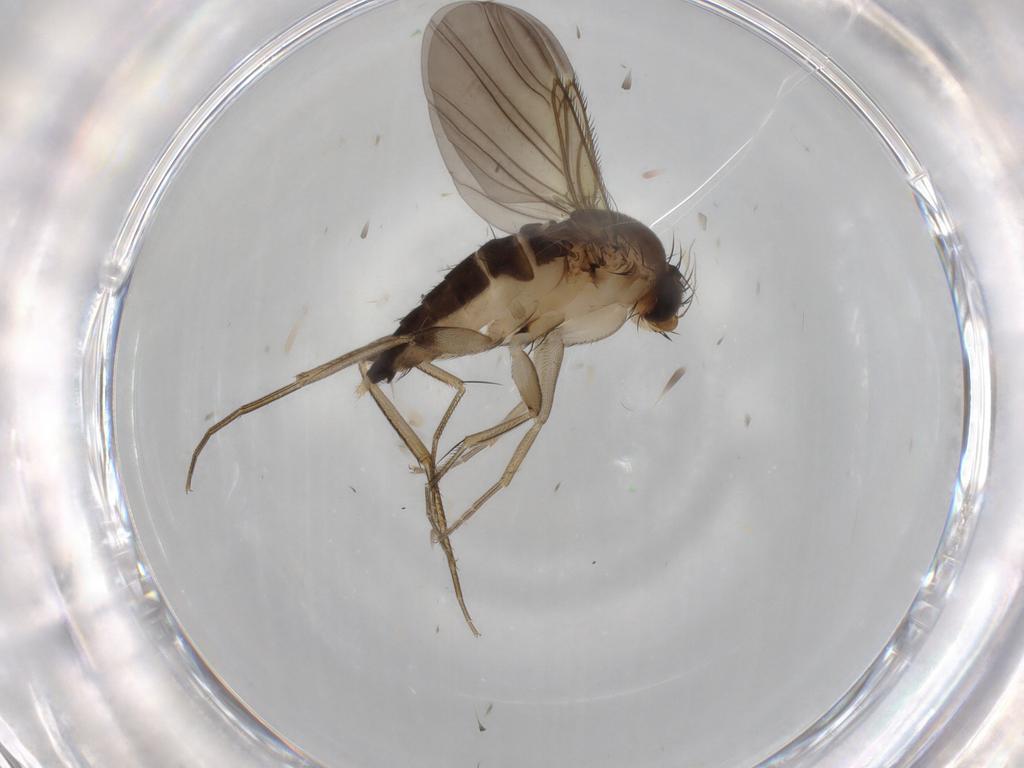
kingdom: Animalia
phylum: Arthropoda
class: Insecta
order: Diptera
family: Phoridae
